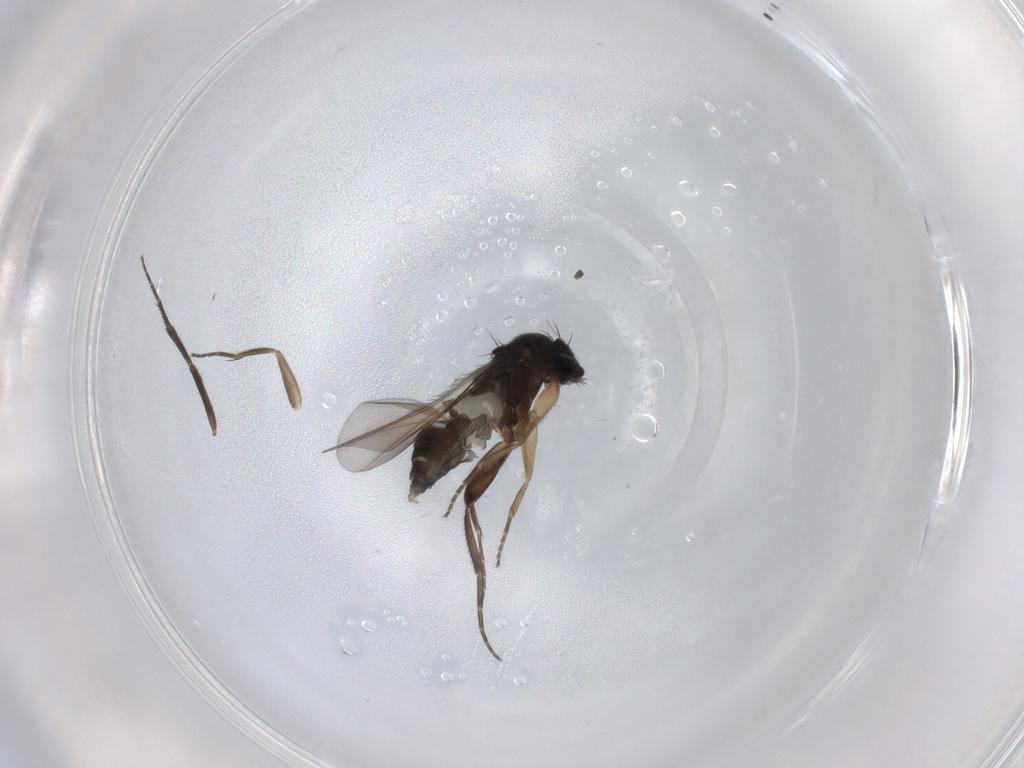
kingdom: Animalia
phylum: Arthropoda
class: Insecta
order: Diptera
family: Phoridae
